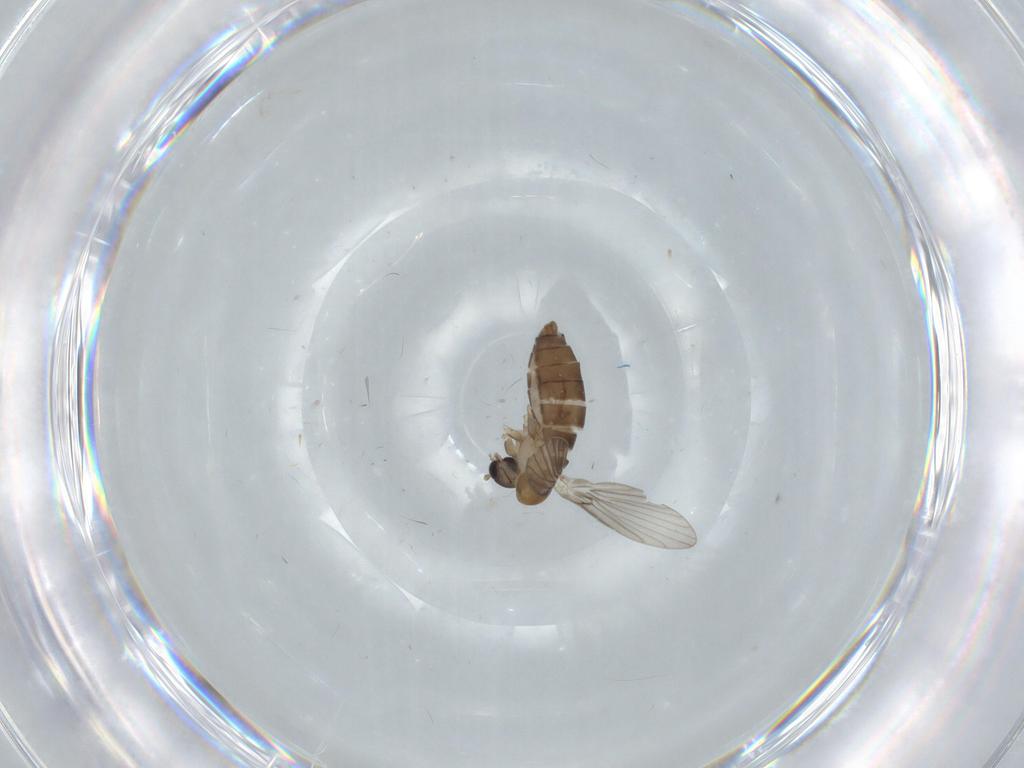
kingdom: Animalia
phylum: Arthropoda
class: Insecta
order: Diptera
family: Psychodidae
